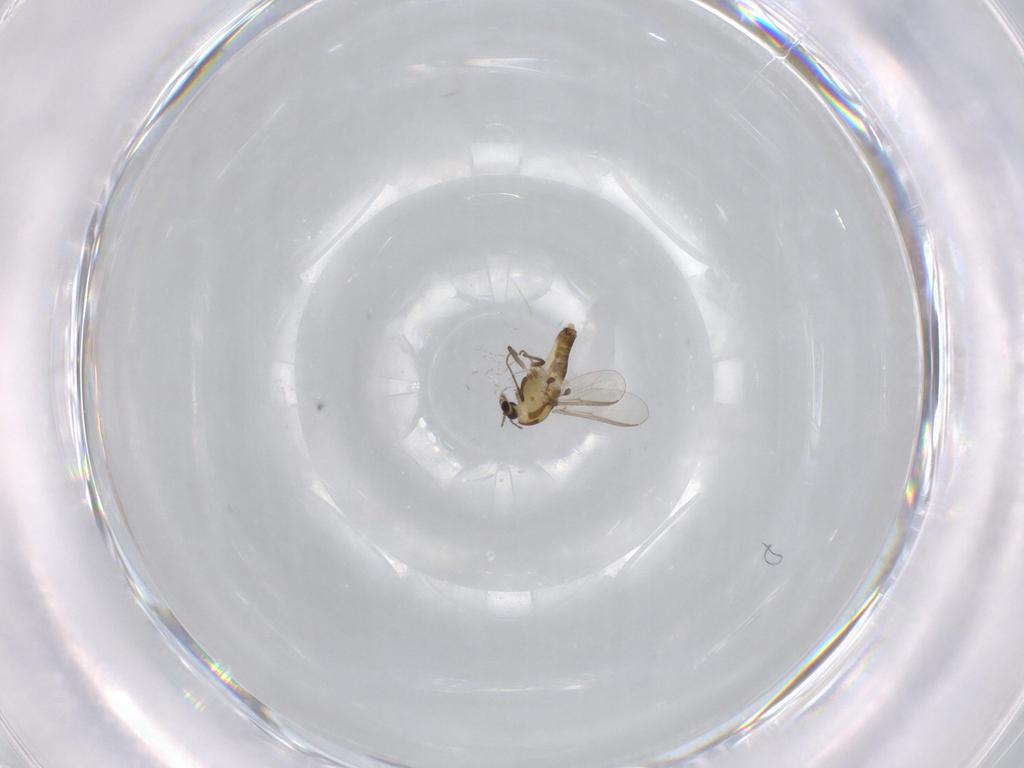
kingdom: Animalia
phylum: Arthropoda
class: Insecta
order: Diptera
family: Chironomidae
